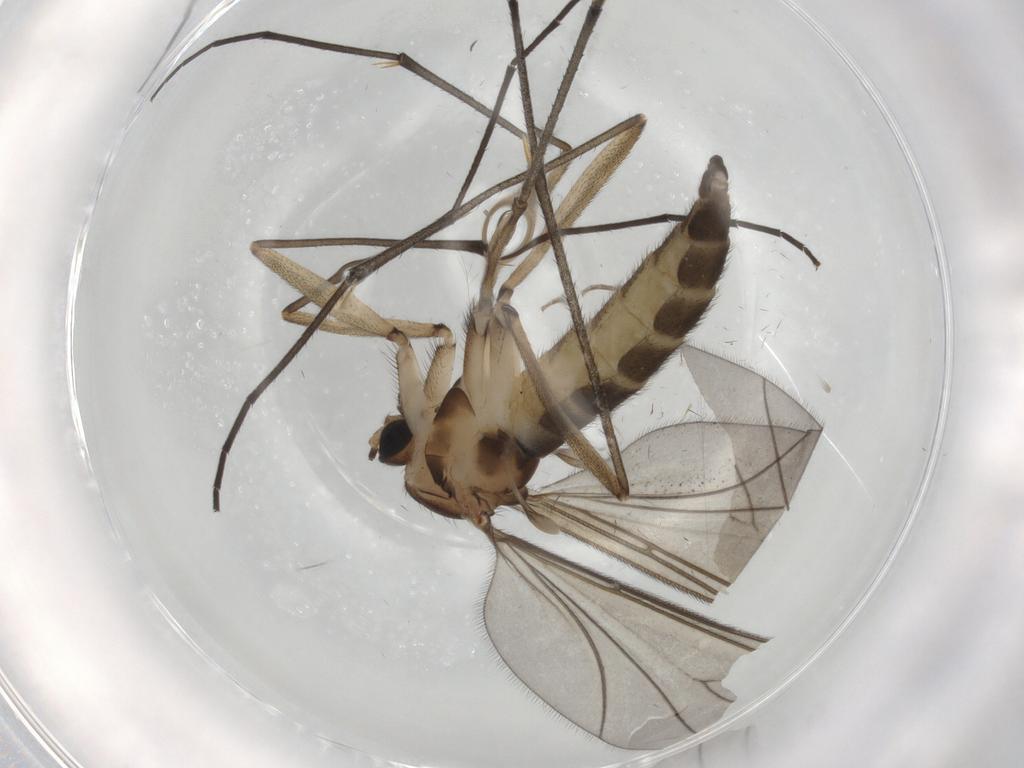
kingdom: Animalia
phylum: Arthropoda
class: Insecta
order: Diptera
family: Sciaridae
